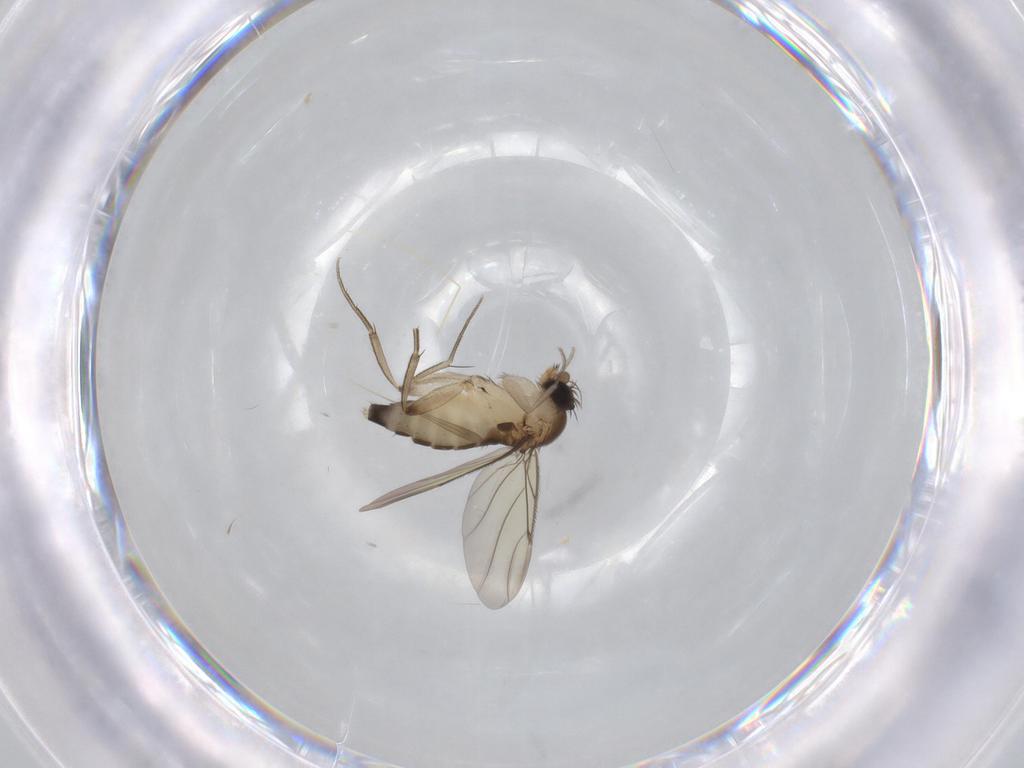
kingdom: Animalia
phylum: Arthropoda
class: Insecta
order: Diptera
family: Phoridae
